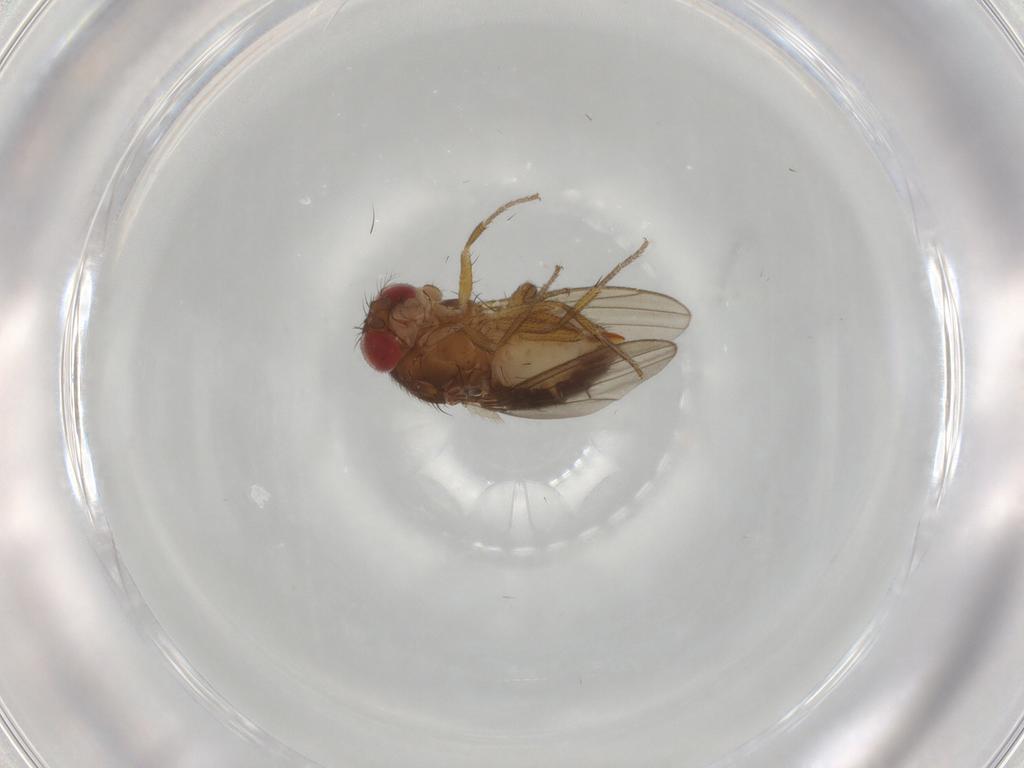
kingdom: Animalia
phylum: Arthropoda
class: Insecta
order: Diptera
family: Drosophilidae
